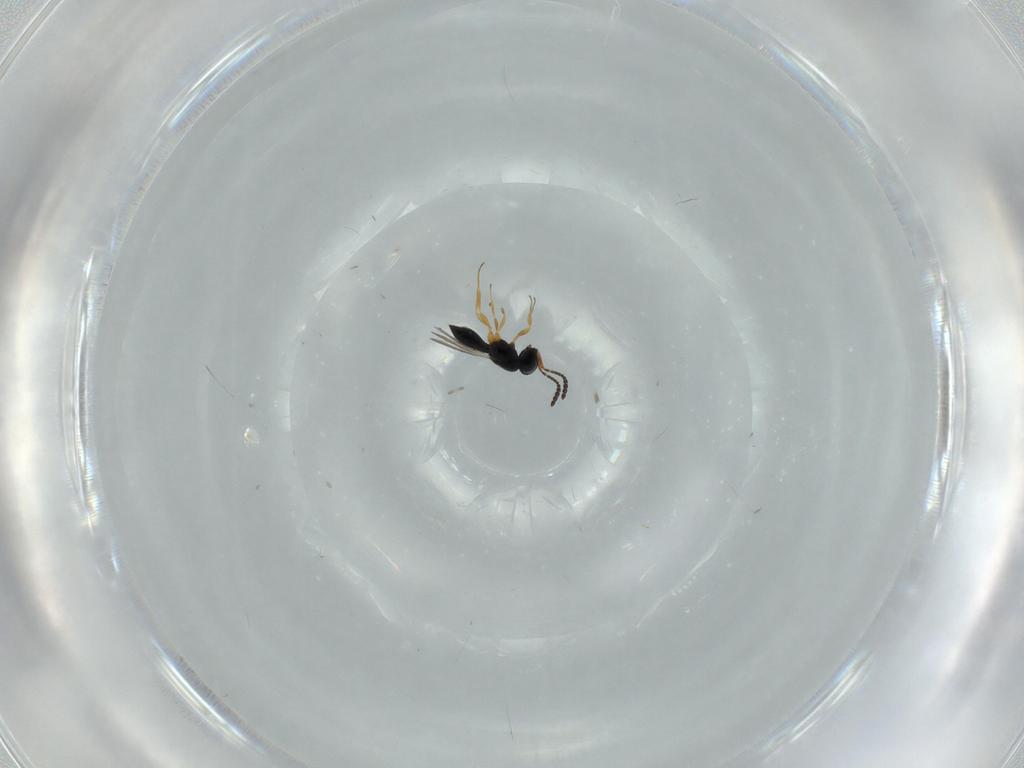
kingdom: Animalia
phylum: Arthropoda
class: Insecta
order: Hymenoptera
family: Scelionidae
